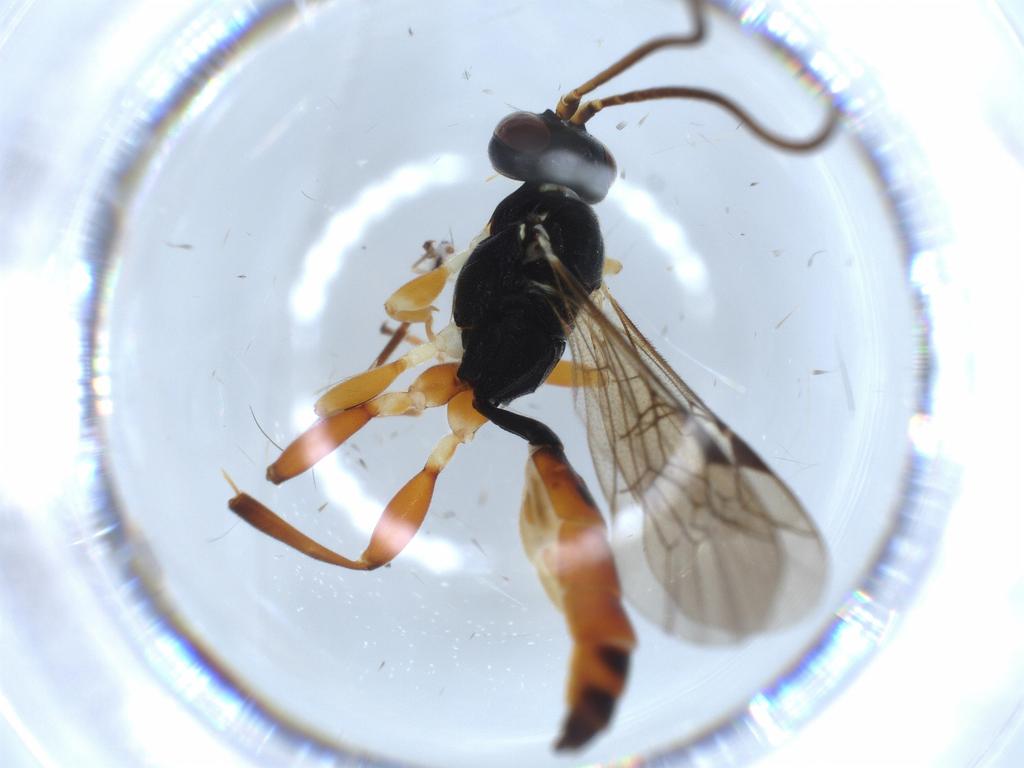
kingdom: Animalia
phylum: Arthropoda
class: Insecta
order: Hymenoptera
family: Ichneumonidae
